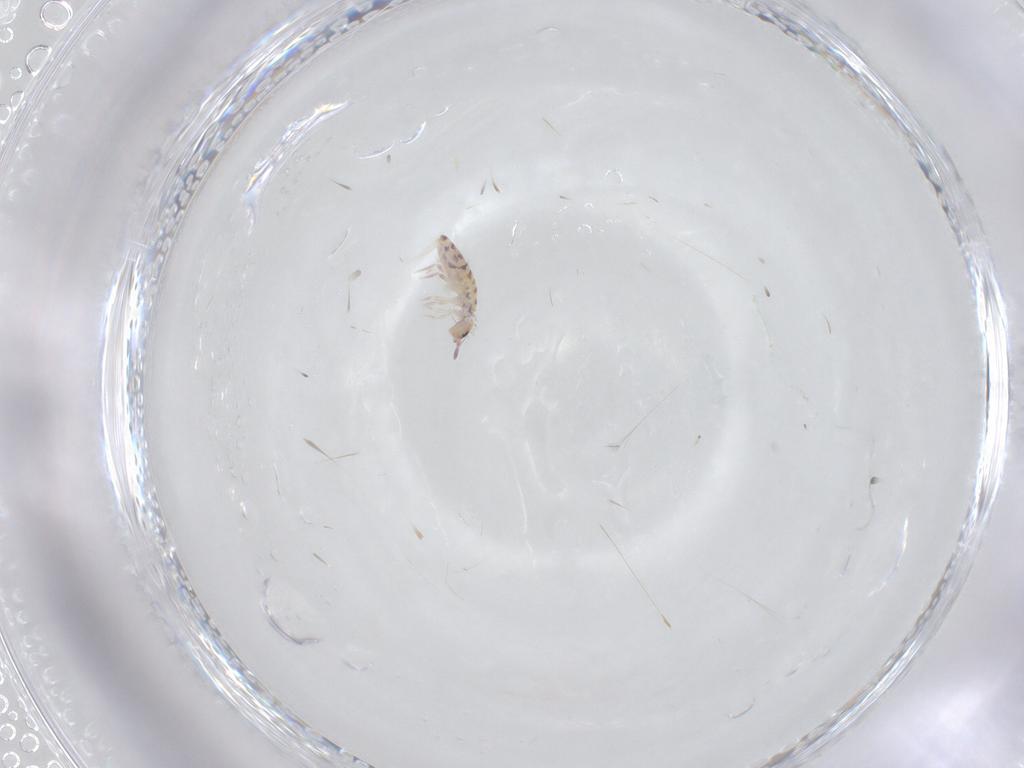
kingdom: Animalia
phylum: Arthropoda
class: Collembola
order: Entomobryomorpha
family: Entomobryidae
